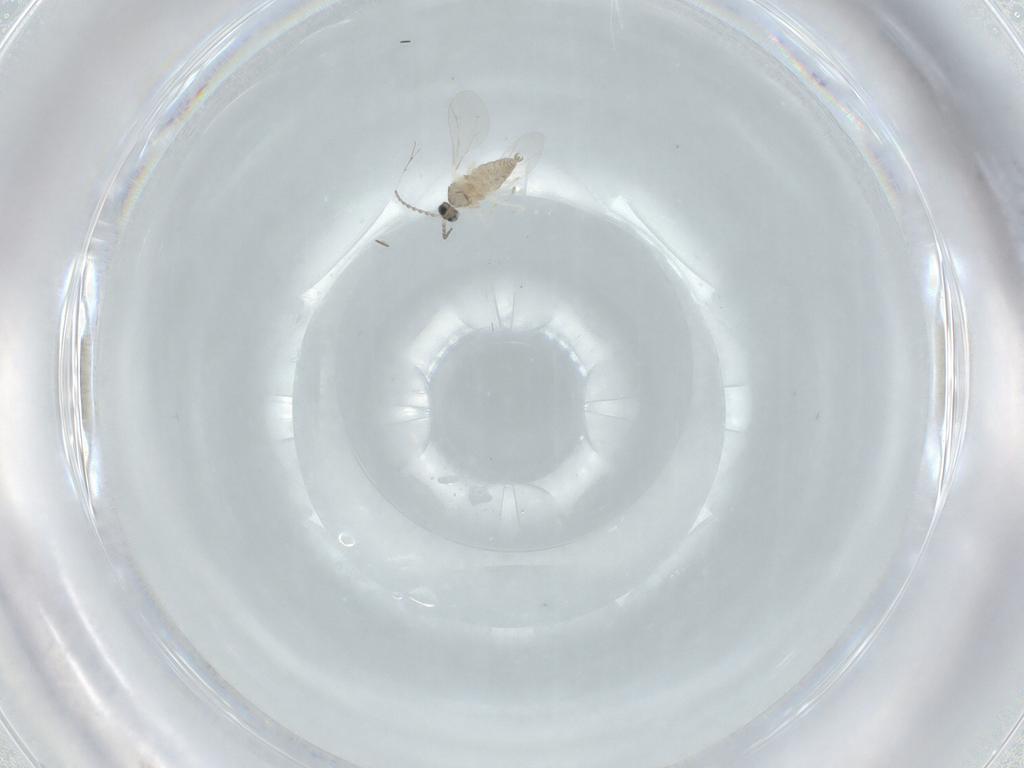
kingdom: Animalia
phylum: Arthropoda
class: Insecta
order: Diptera
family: Cecidomyiidae
